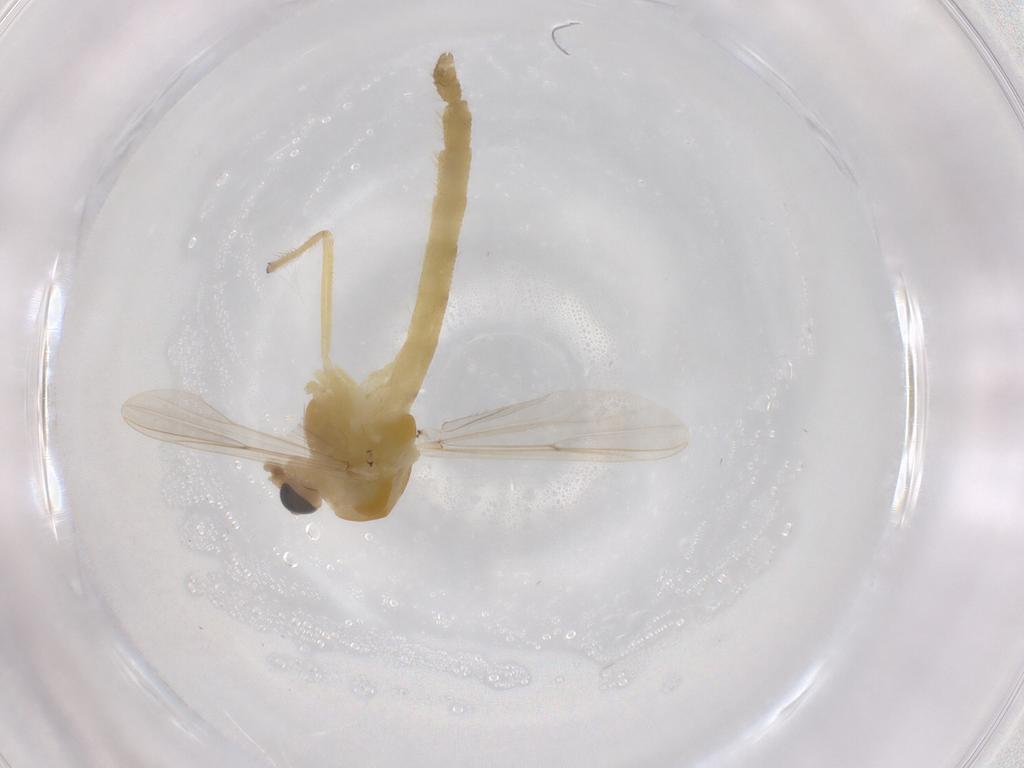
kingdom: Animalia
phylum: Arthropoda
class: Insecta
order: Diptera
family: Chironomidae
